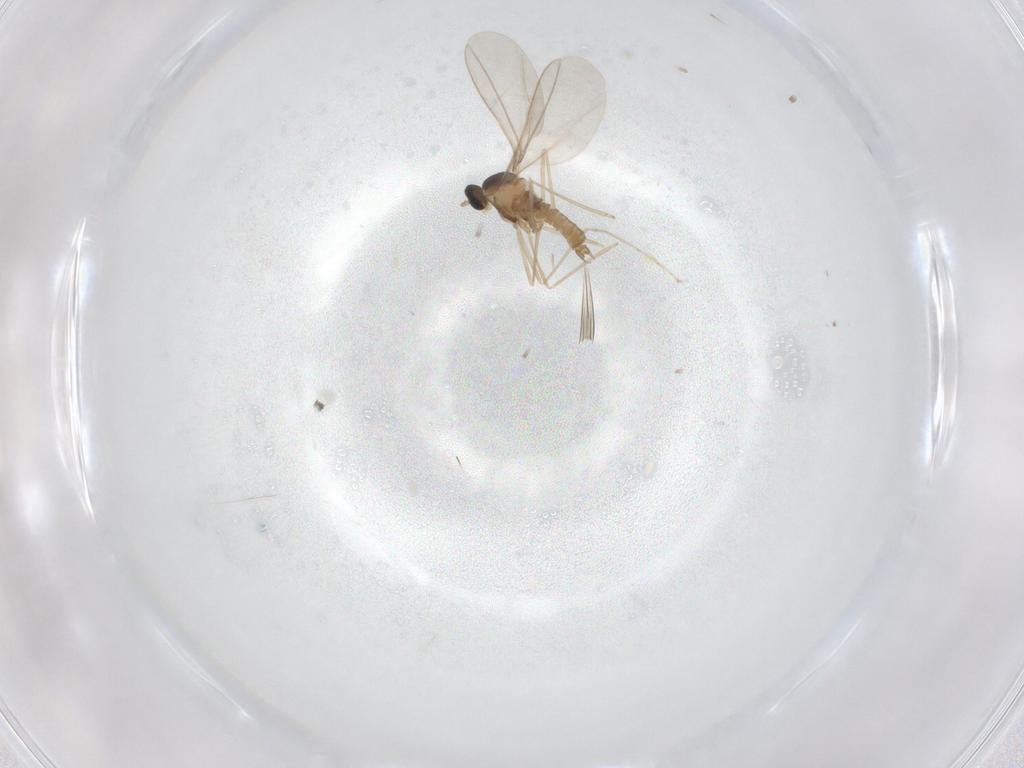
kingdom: Animalia
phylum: Arthropoda
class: Insecta
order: Diptera
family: Cecidomyiidae
